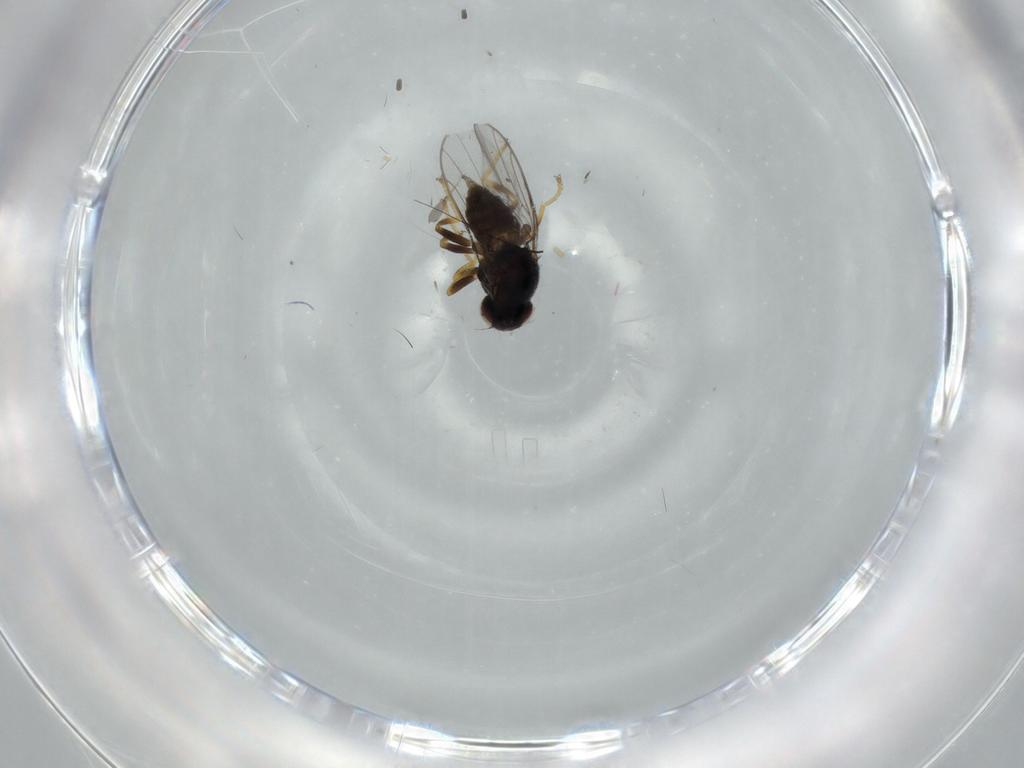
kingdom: Animalia
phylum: Arthropoda
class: Insecta
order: Diptera
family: Chloropidae
